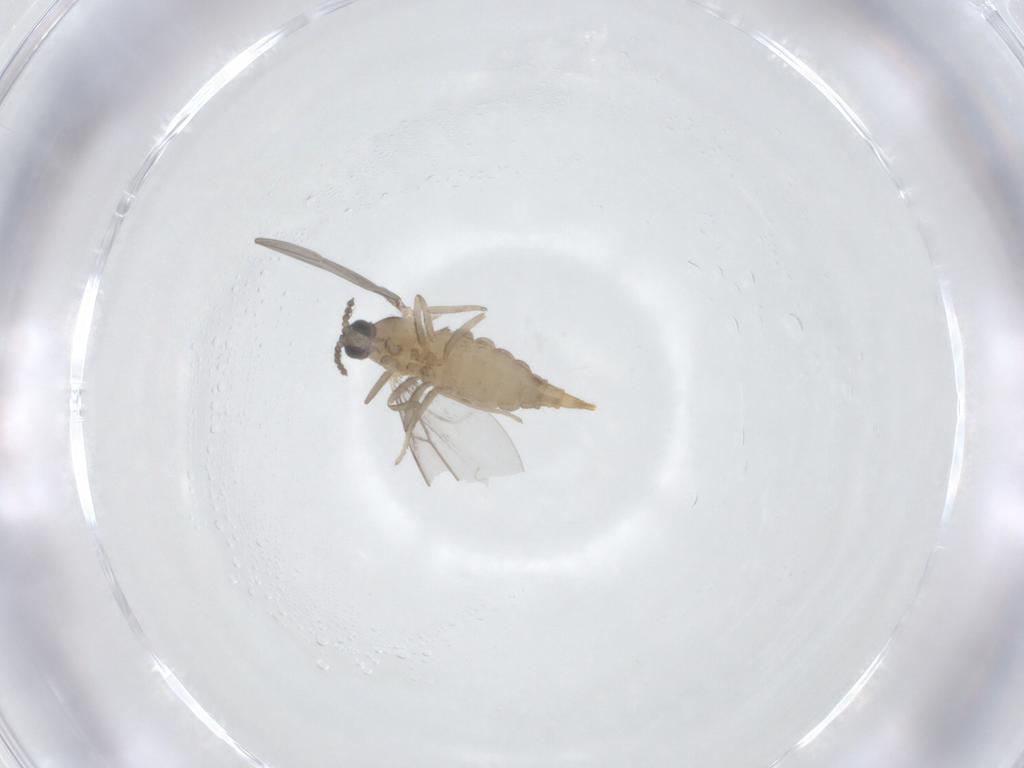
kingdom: Animalia
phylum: Arthropoda
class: Insecta
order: Diptera
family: Cecidomyiidae
